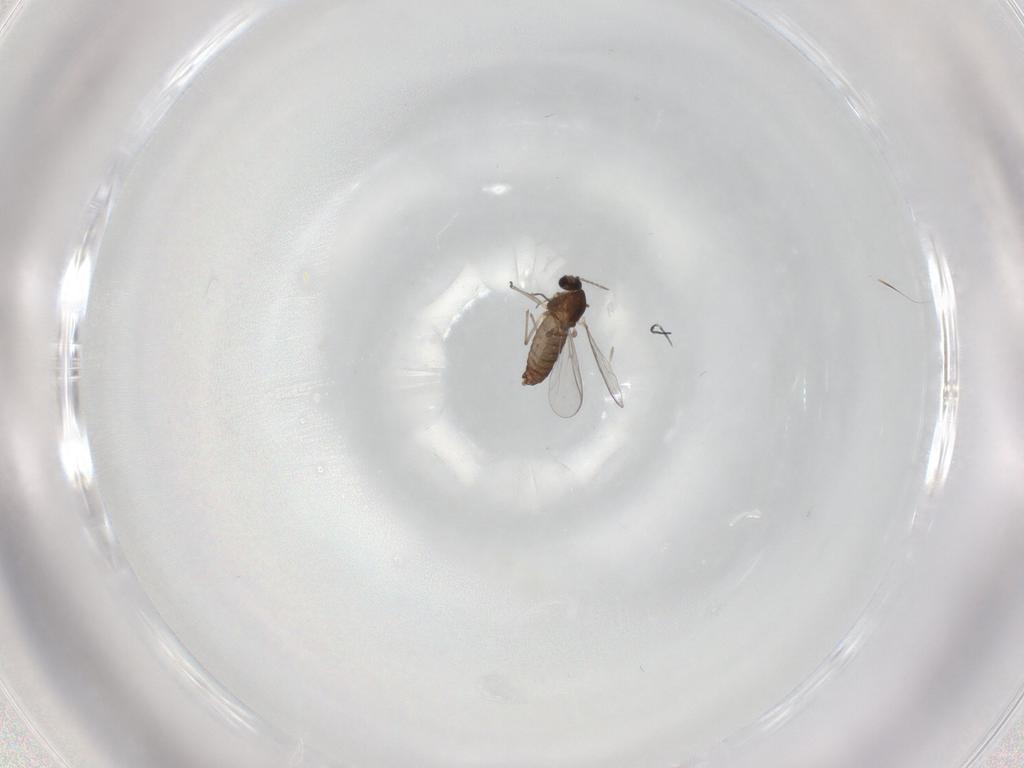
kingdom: Animalia
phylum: Arthropoda
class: Insecta
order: Diptera
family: Chironomidae
